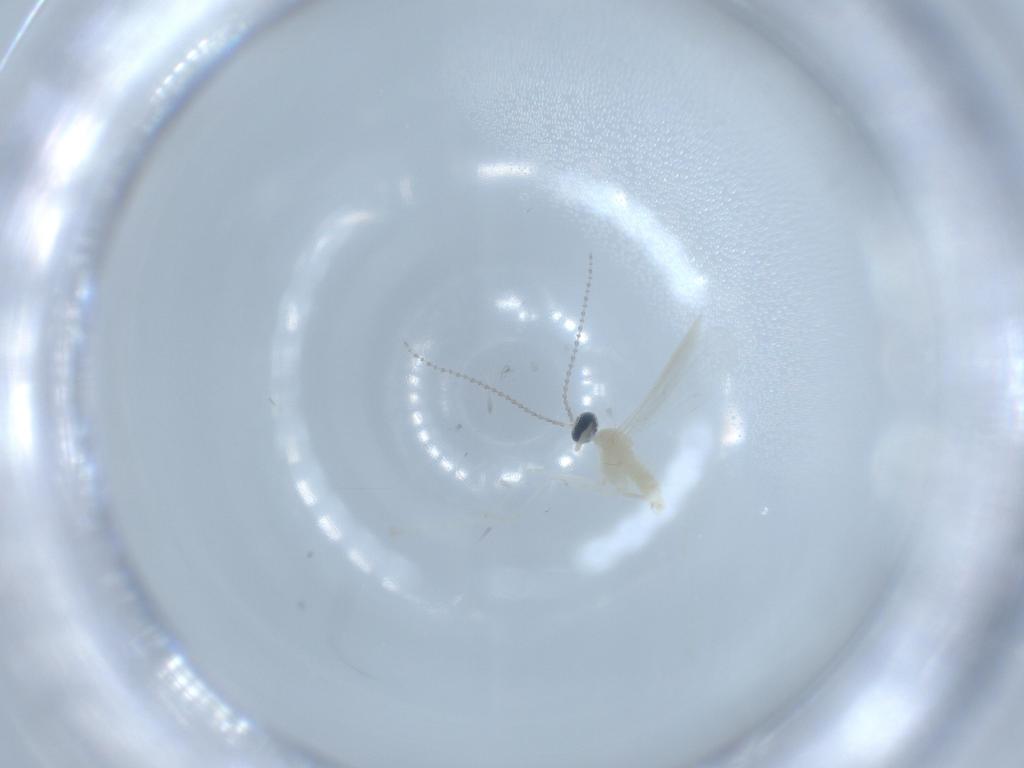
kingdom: Animalia
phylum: Arthropoda
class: Insecta
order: Diptera
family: Cecidomyiidae
